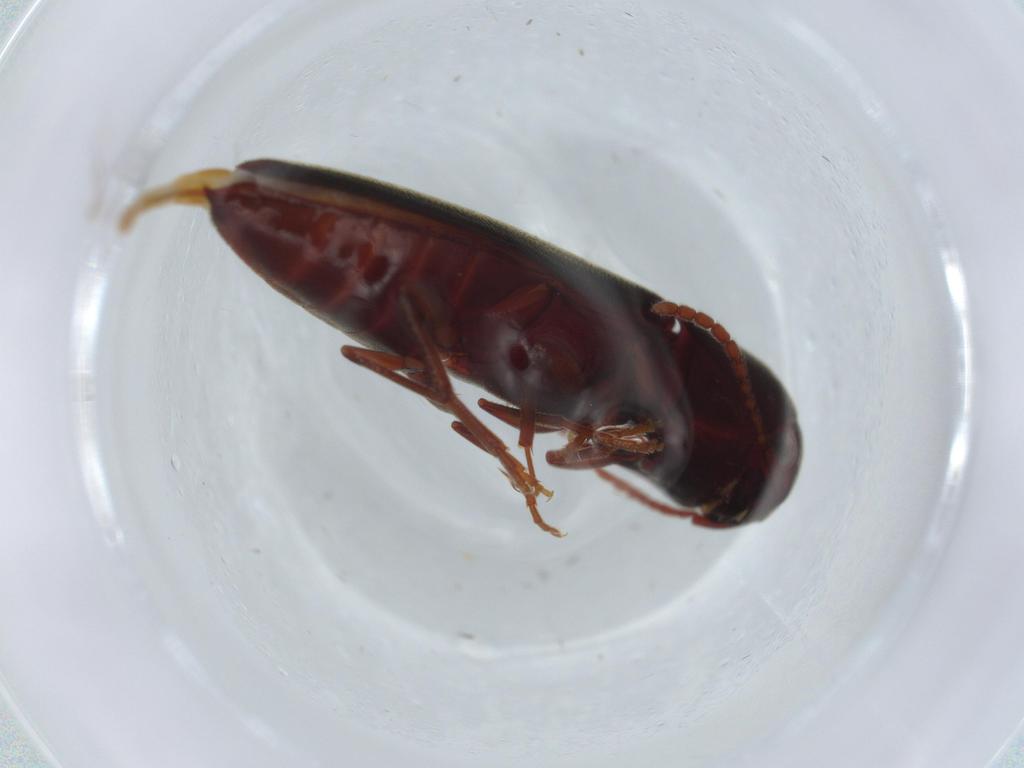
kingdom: Animalia
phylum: Arthropoda
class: Insecta
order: Coleoptera
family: Eucnemidae
